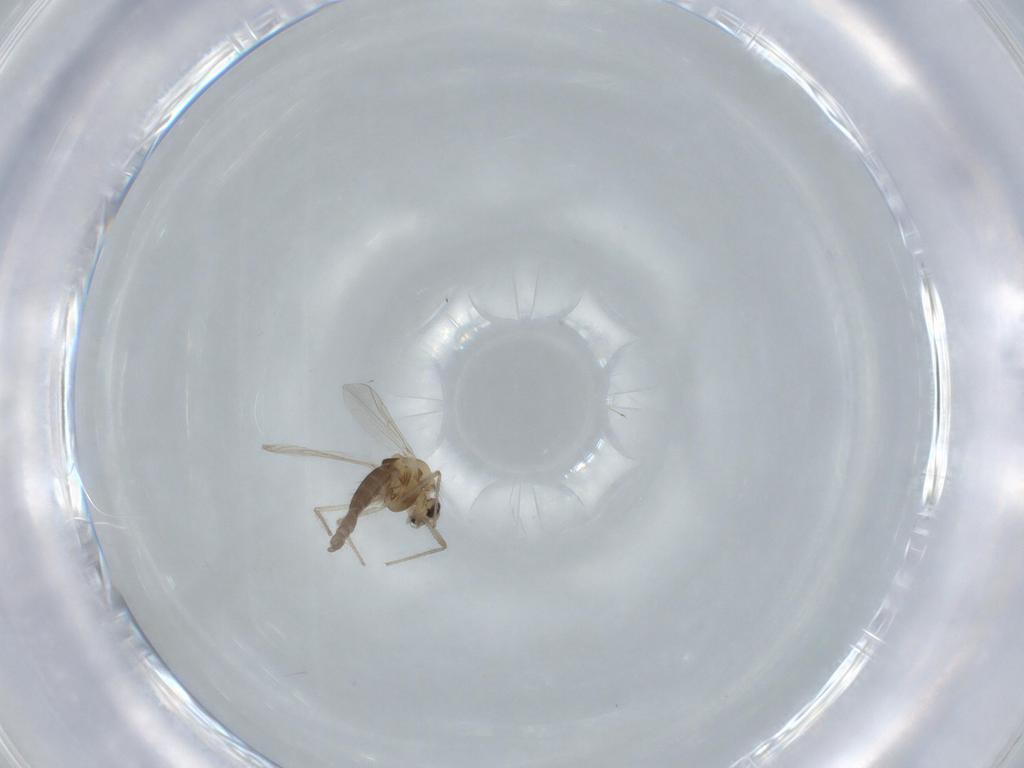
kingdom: Animalia
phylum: Arthropoda
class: Insecta
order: Diptera
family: Chironomidae
